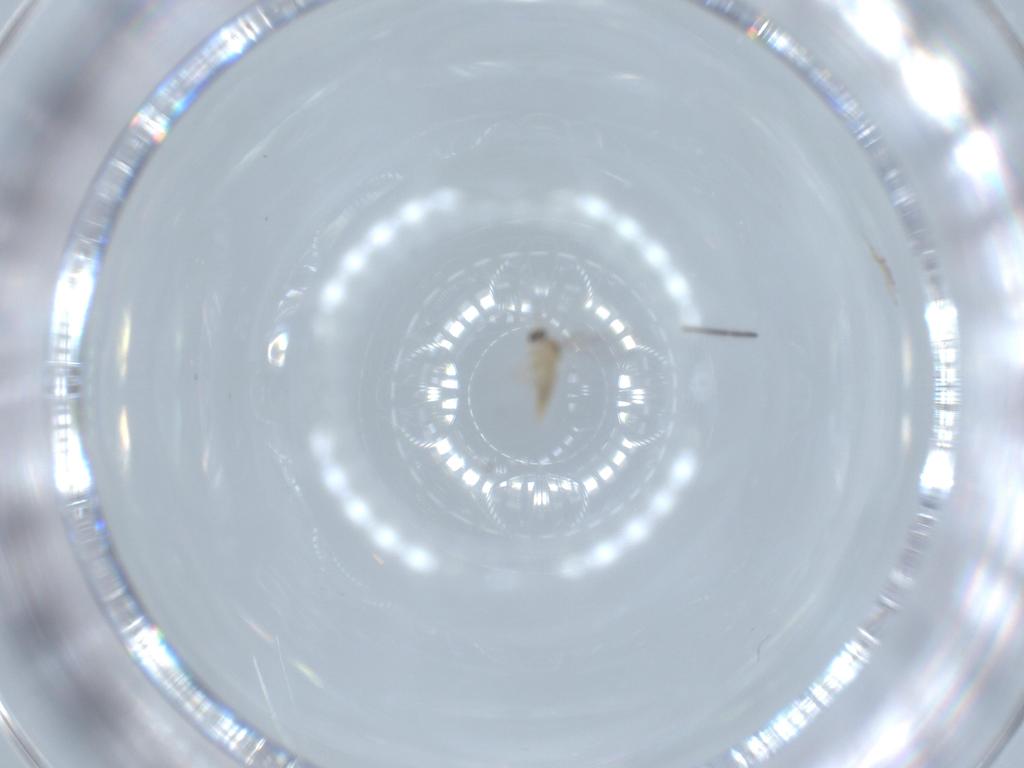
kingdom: Animalia
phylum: Arthropoda
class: Insecta
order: Diptera
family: Cecidomyiidae
